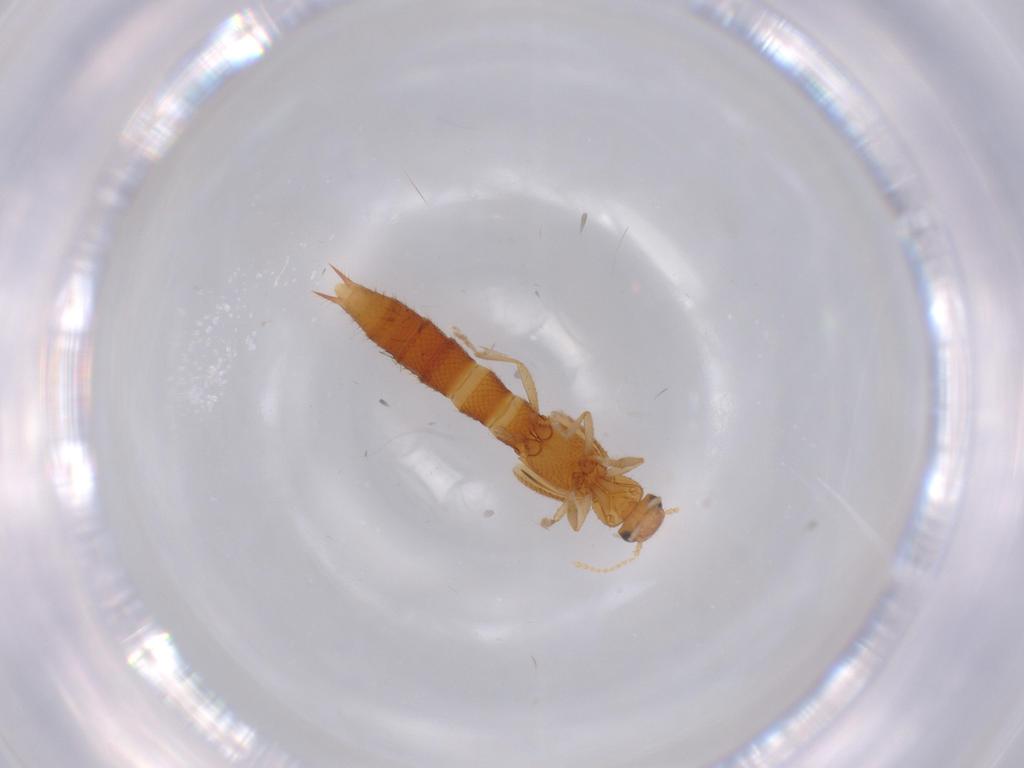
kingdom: Animalia
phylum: Arthropoda
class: Insecta
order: Coleoptera
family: Staphylinidae
